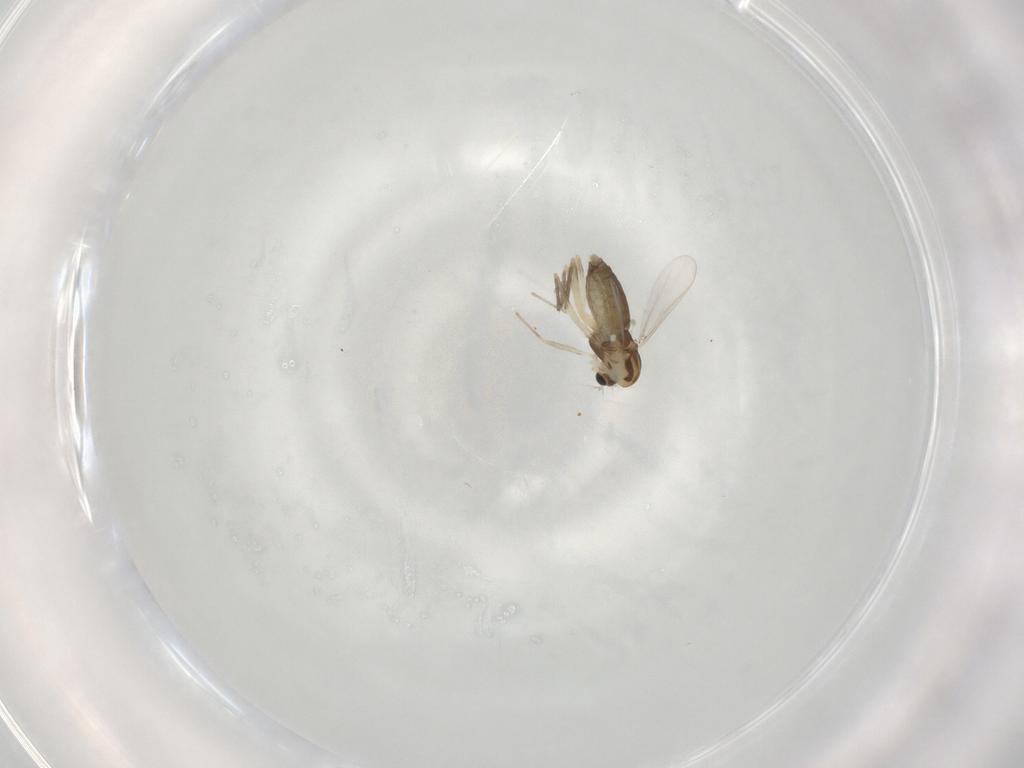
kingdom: Animalia
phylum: Arthropoda
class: Insecta
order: Diptera
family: Chironomidae
